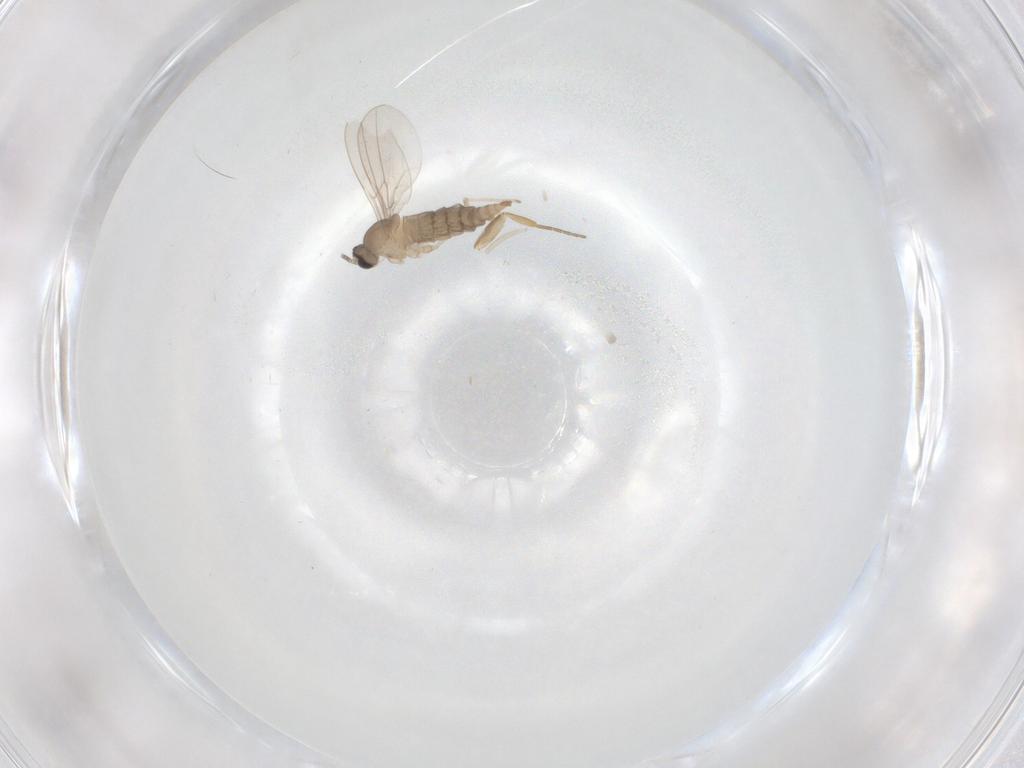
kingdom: Animalia
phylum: Arthropoda
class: Insecta
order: Diptera
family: Cecidomyiidae
